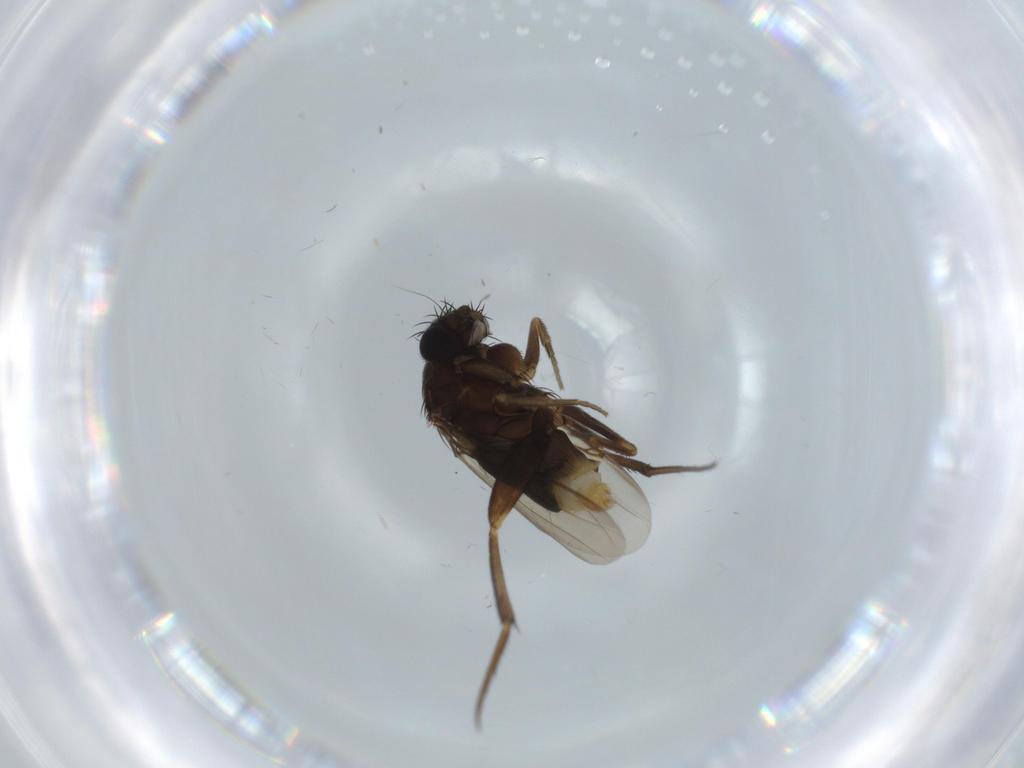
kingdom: Animalia
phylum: Arthropoda
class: Insecta
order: Diptera
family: Phoridae
